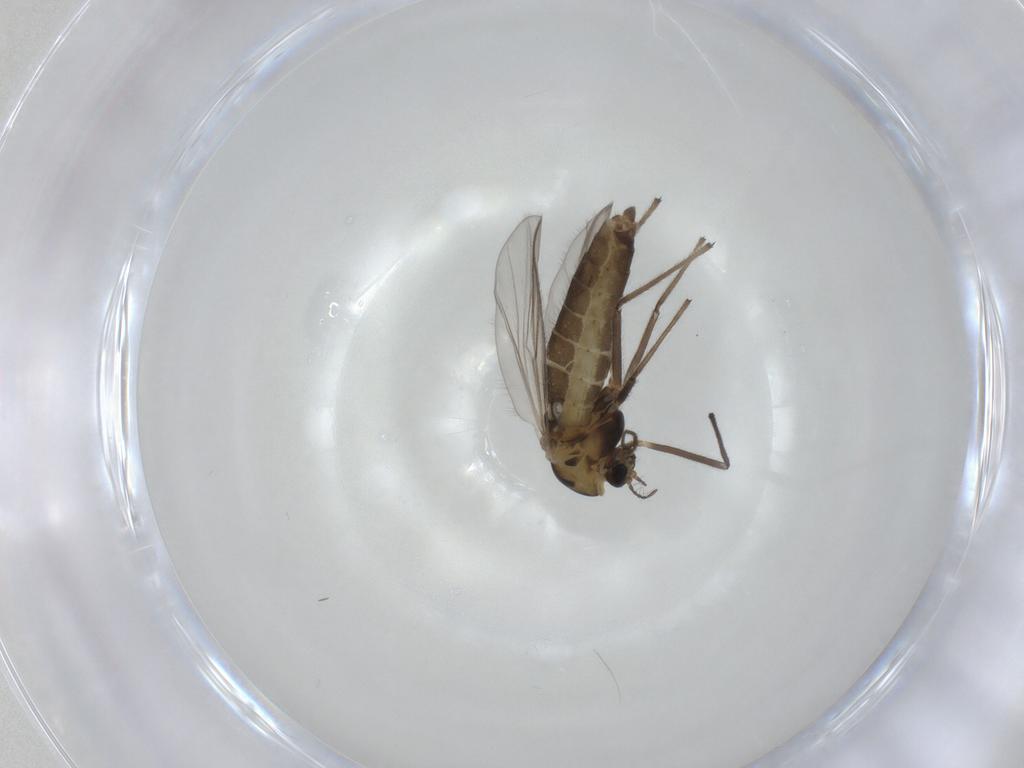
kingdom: Animalia
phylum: Arthropoda
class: Insecta
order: Diptera
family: Chironomidae
